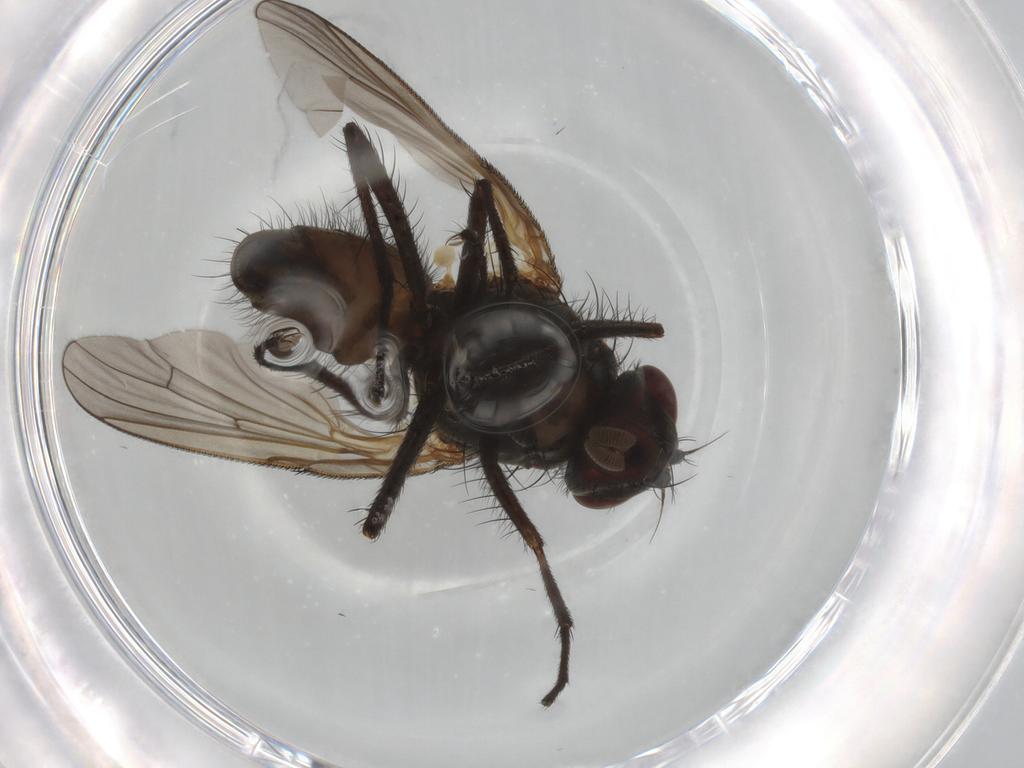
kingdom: Animalia
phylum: Arthropoda
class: Insecta
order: Diptera
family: Anthomyiidae
